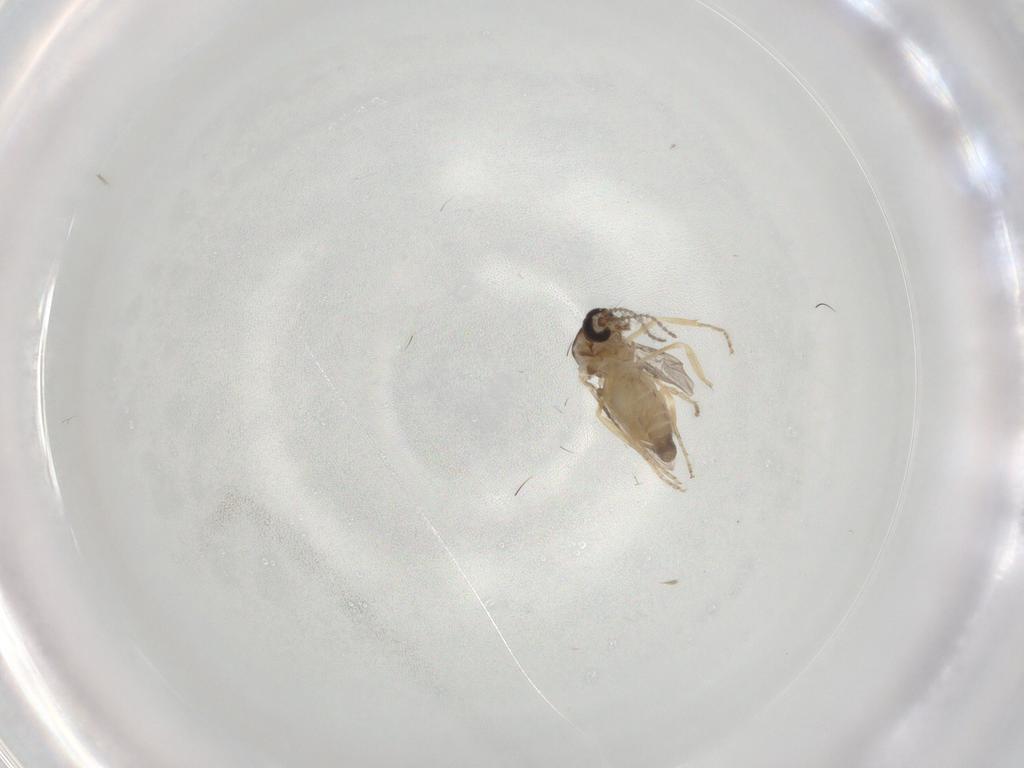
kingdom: Animalia
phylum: Arthropoda
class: Insecta
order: Diptera
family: Ceratopogonidae
